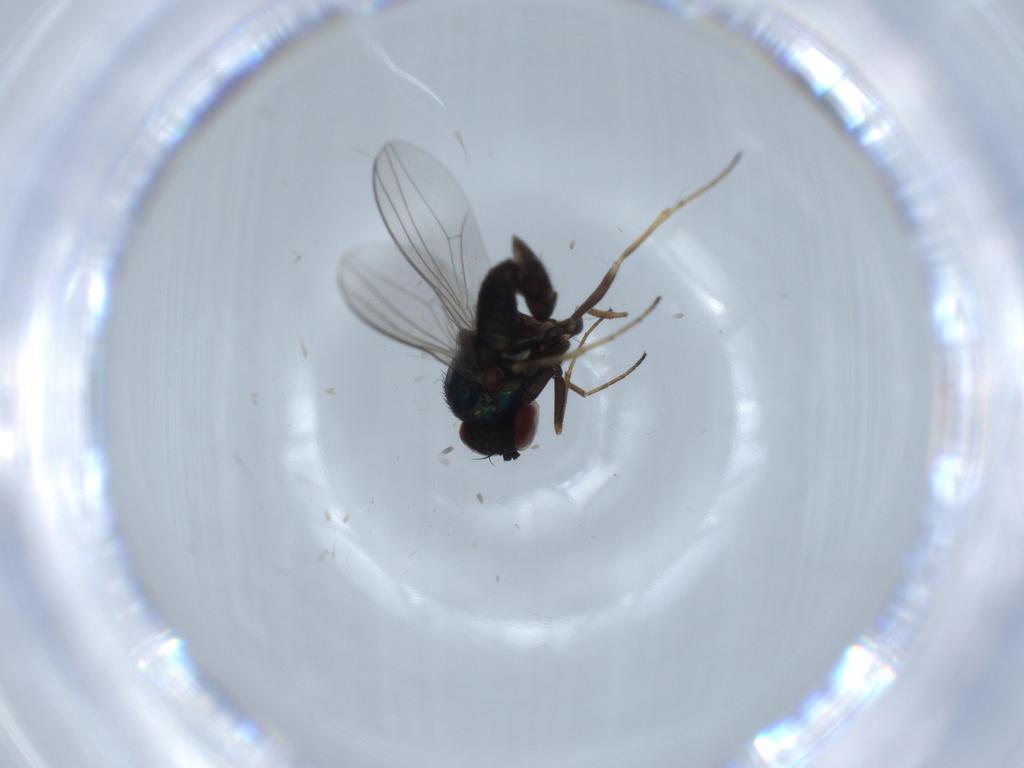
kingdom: Animalia
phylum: Arthropoda
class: Insecta
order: Diptera
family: Dolichopodidae
